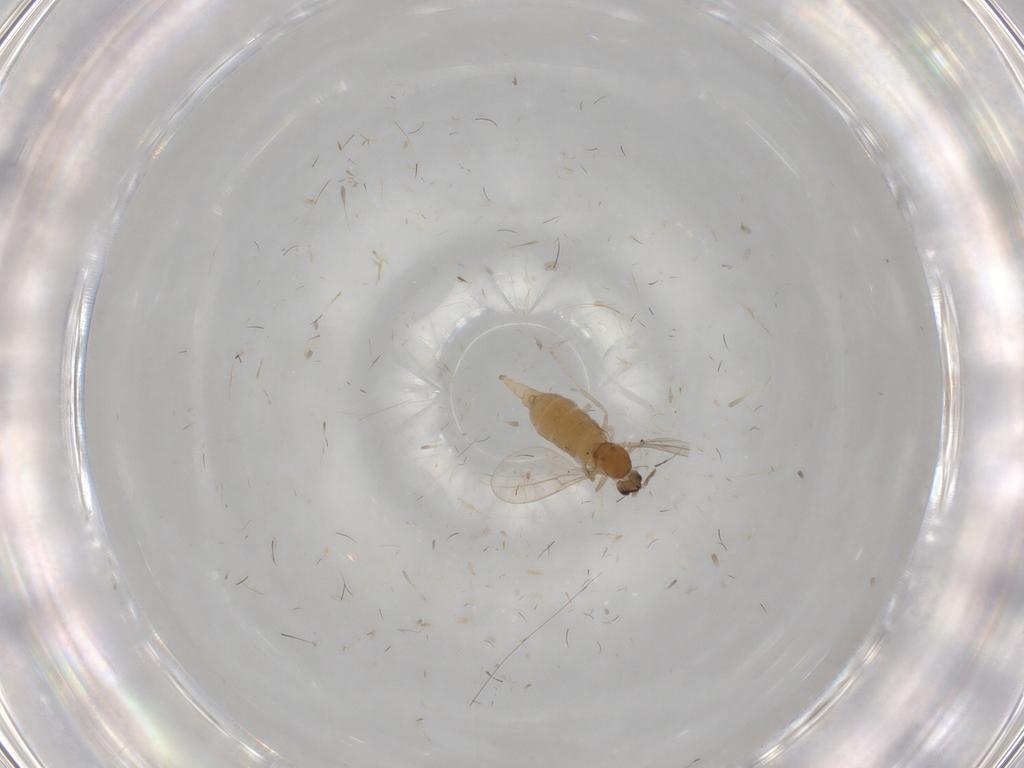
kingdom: Animalia
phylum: Arthropoda
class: Insecta
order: Diptera
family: Cecidomyiidae
